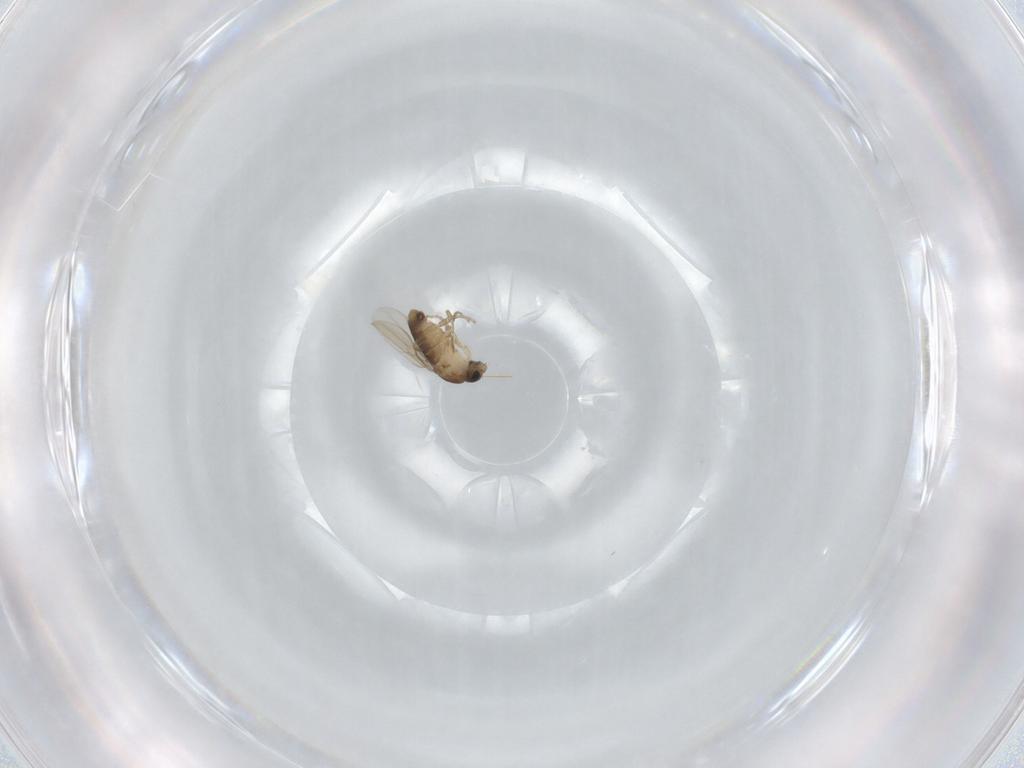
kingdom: Animalia
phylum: Arthropoda
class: Insecta
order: Diptera
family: Phoridae
